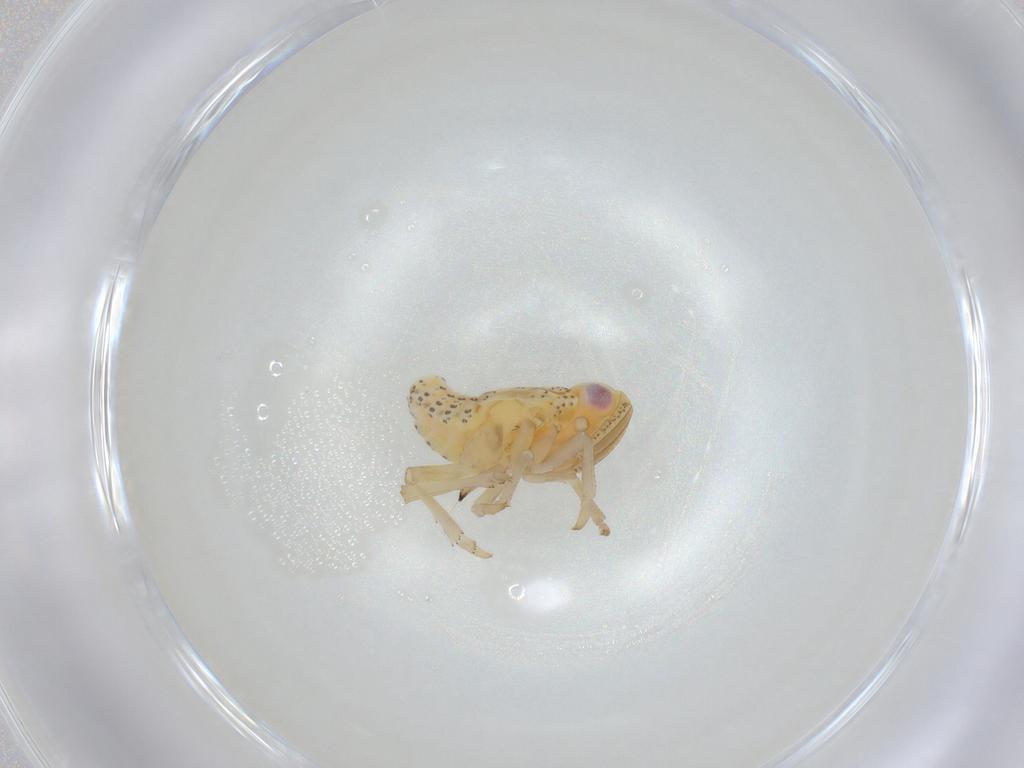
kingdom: Animalia
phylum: Arthropoda
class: Insecta
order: Hemiptera
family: Tropiduchidae
